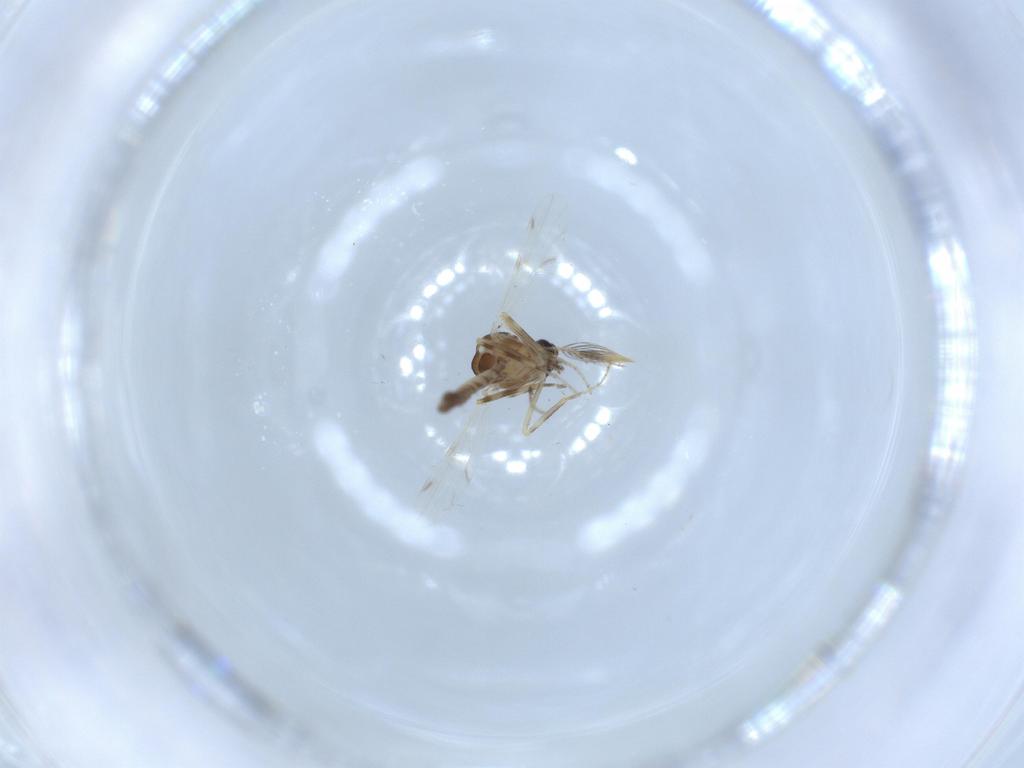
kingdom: Animalia
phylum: Arthropoda
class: Insecta
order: Diptera
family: Ceratopogonidae
